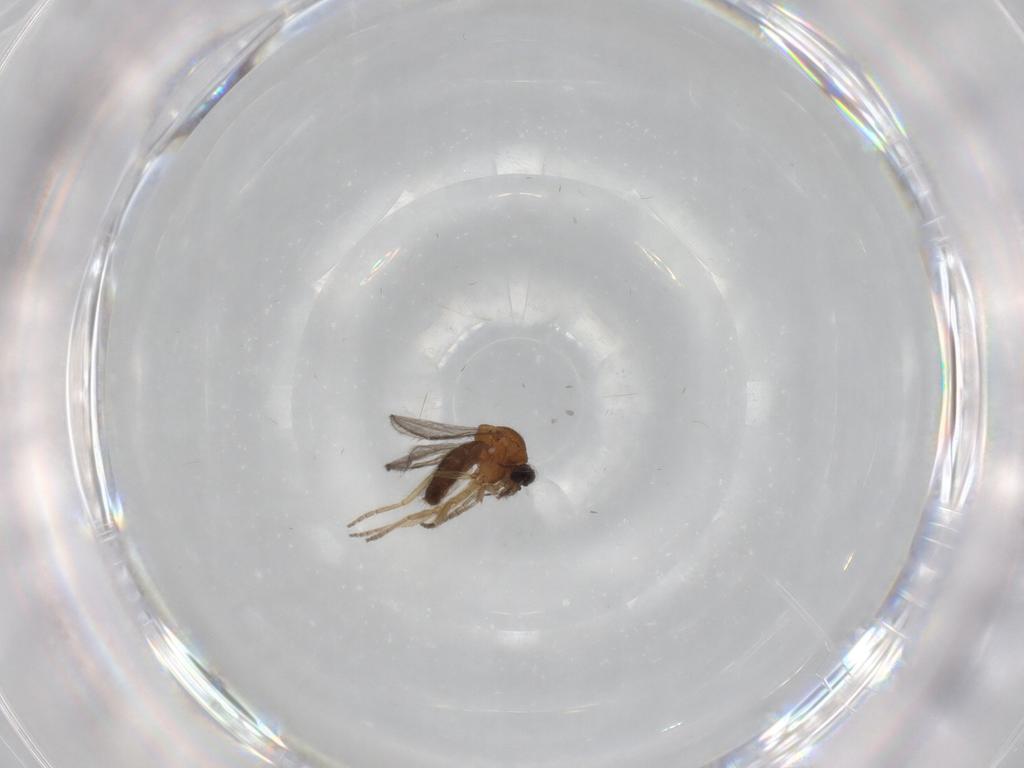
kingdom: Animalia
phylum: Arthropoda
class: Insecta
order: Diptera
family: Ceratopogonidae
